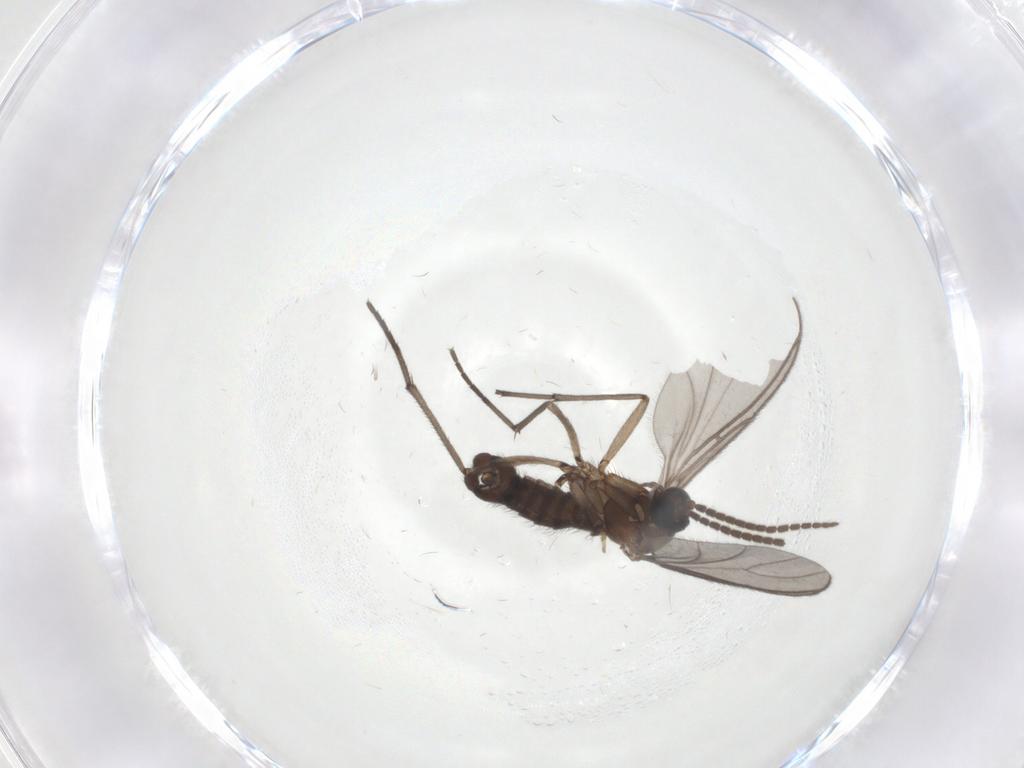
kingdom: Animalia
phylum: Arthropoda
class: Insecta
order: Diptera
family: Sciaridae
